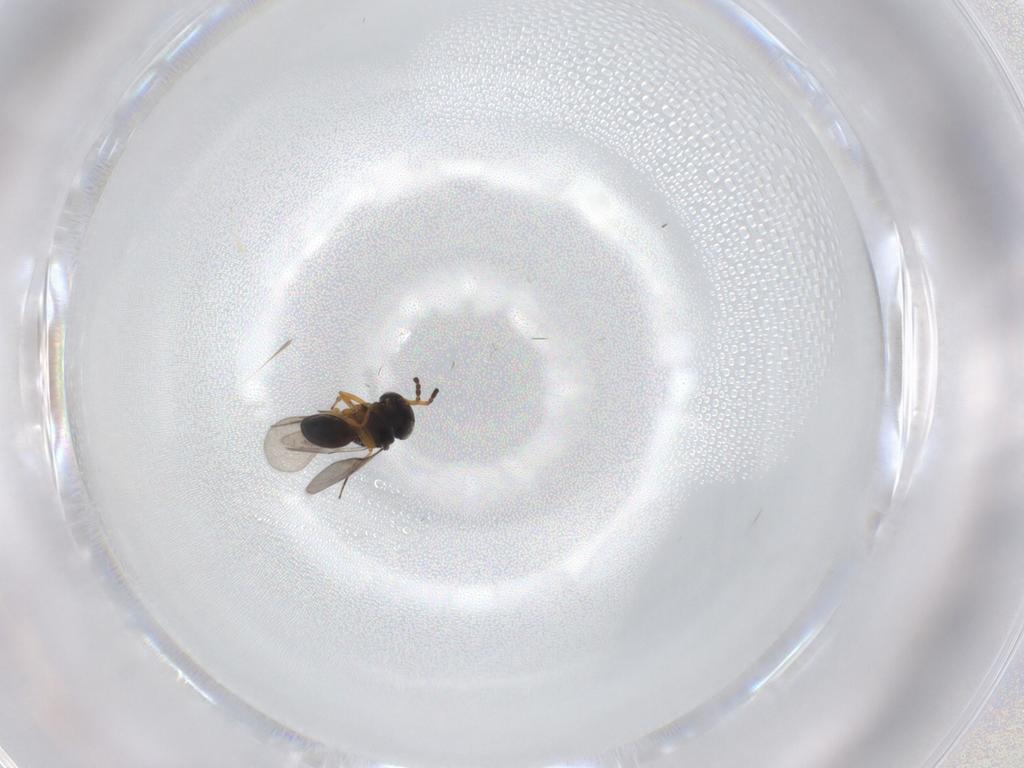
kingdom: Animalia
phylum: Arthropoda
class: Insecta
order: Hymenoptera
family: Scelionidae
